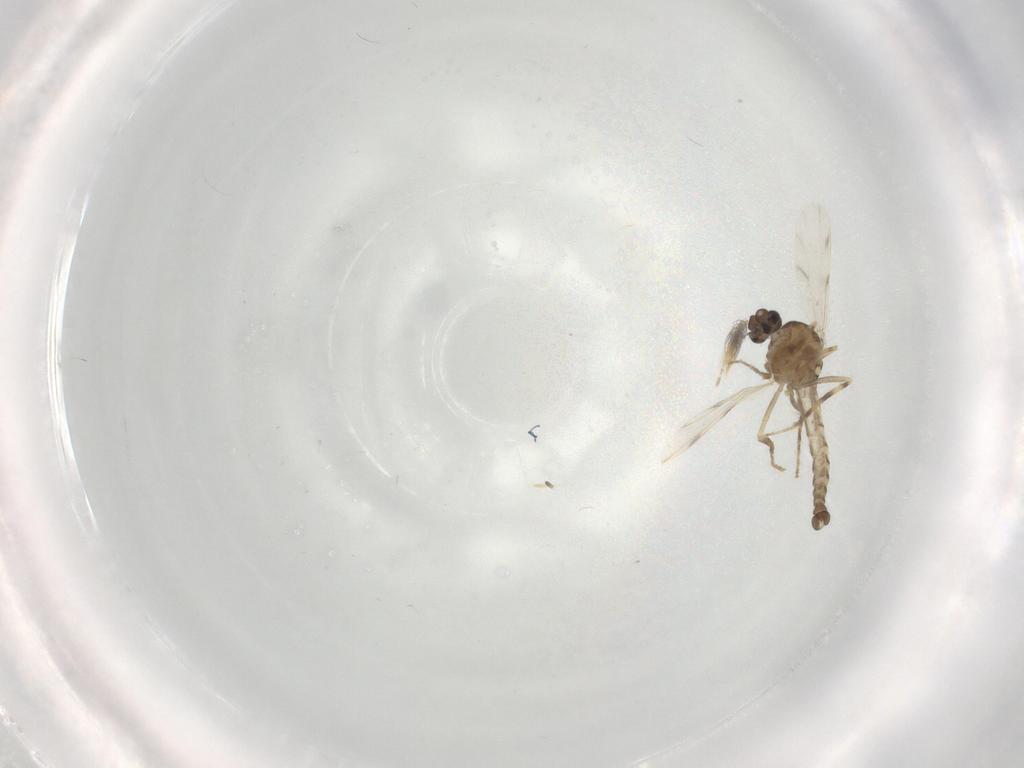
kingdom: Animalia
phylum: Arthropoda
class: Insecta
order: Diptera
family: Ceratopogonidae
